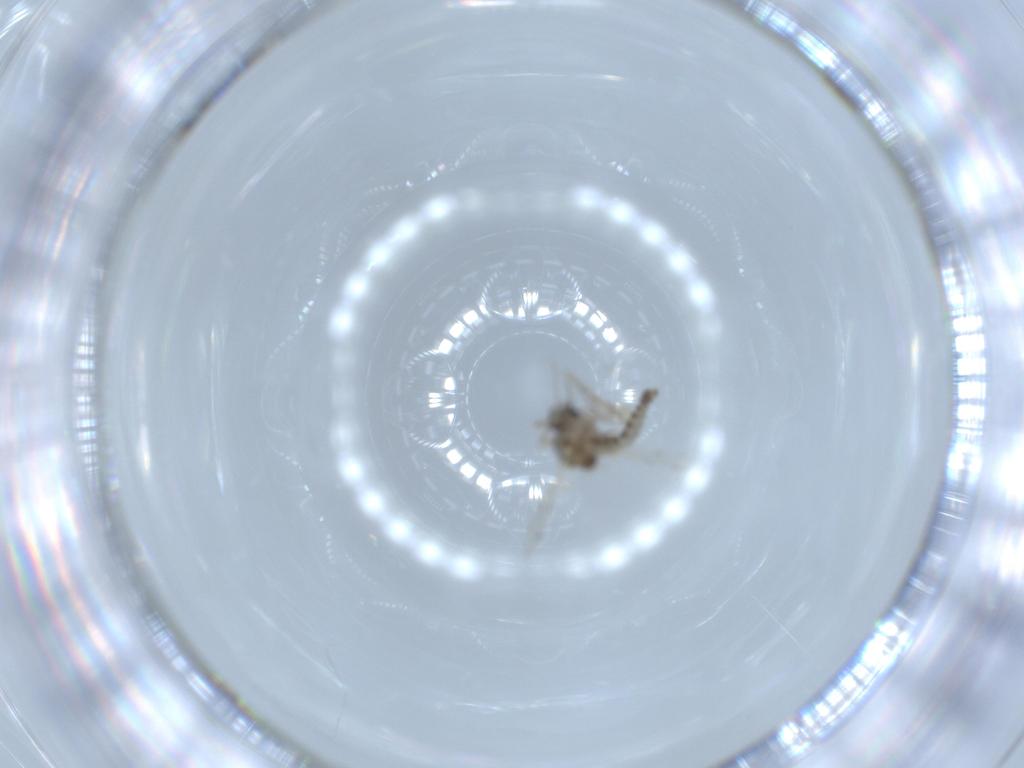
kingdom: Animalia
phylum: Arthropoda
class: Insecta
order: Diptera
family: Ceratopogonidae
